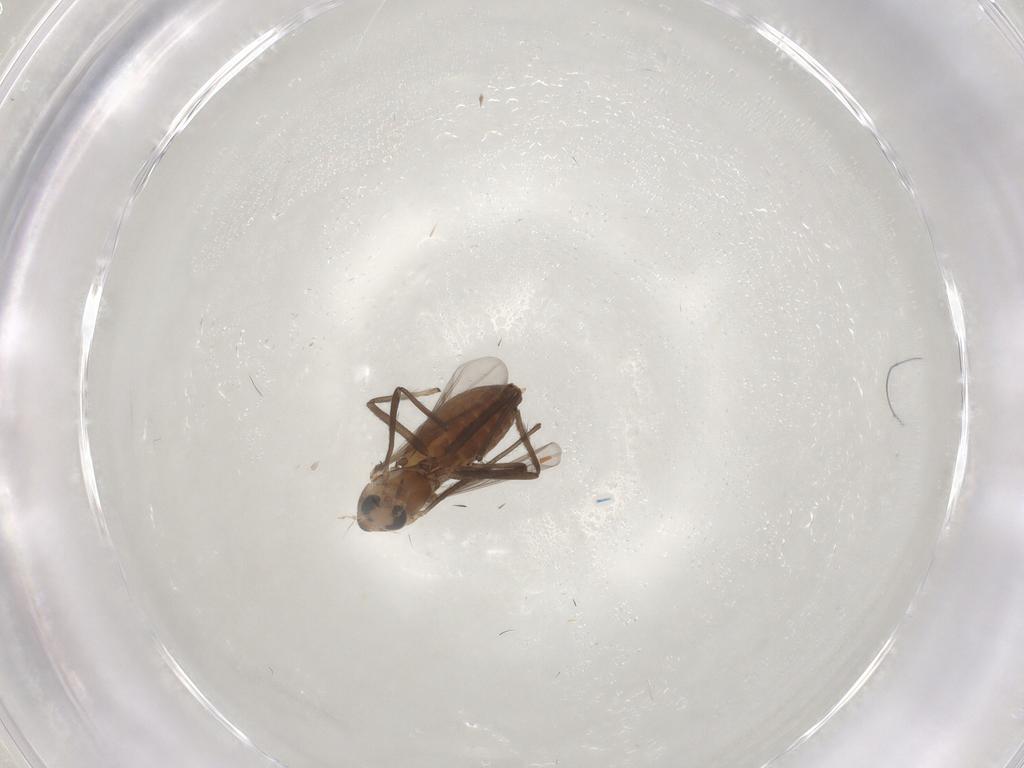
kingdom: Animalia
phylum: Arthropoda
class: Insecta
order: Diptera
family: Chironomidae
